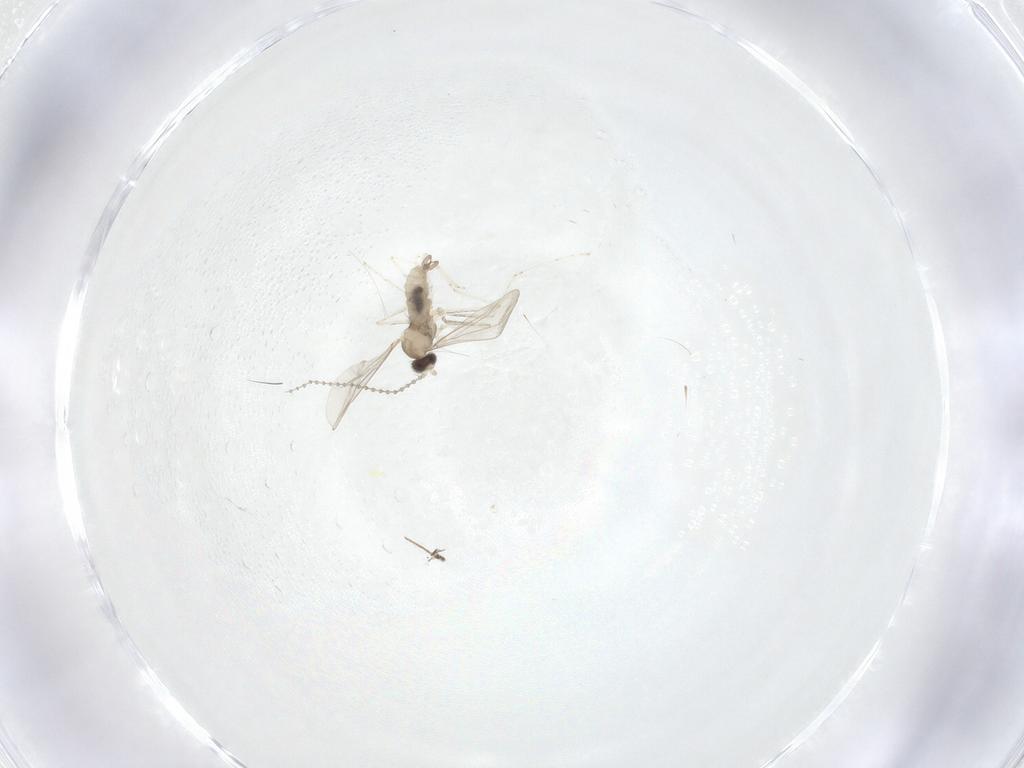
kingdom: Animalia
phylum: Arthropoda
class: Insecta
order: Diptera
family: Cecidomyiidae
